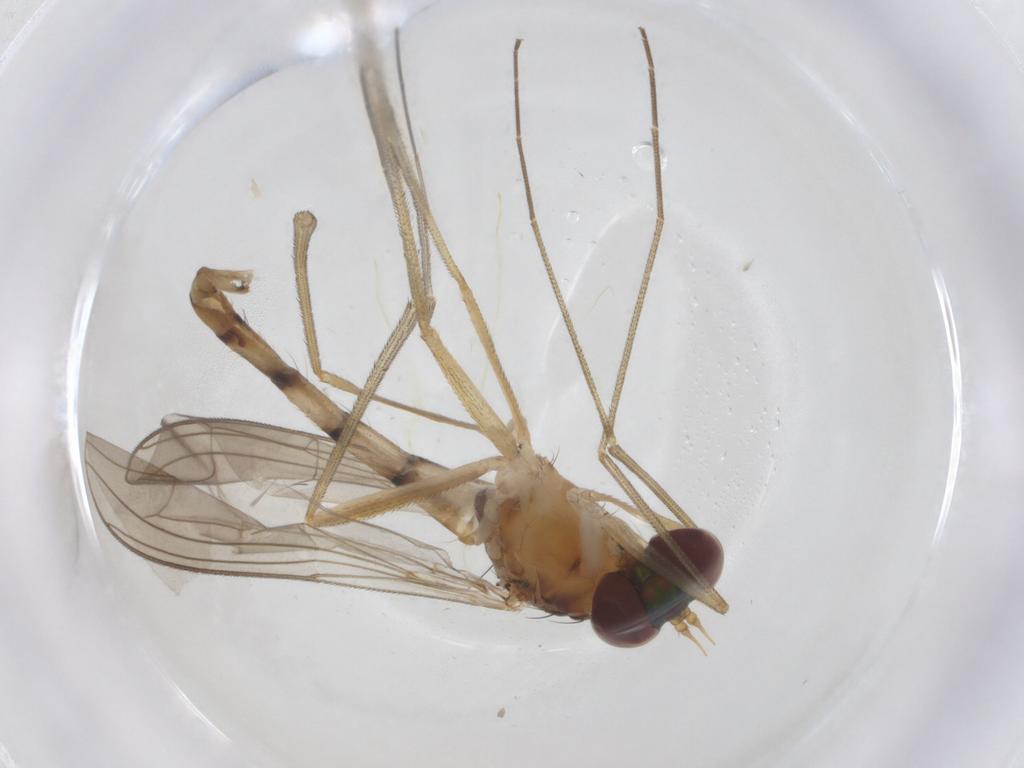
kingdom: Animalia
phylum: Arthropoda
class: Insecta
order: Diptera
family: Dolichopodidae
